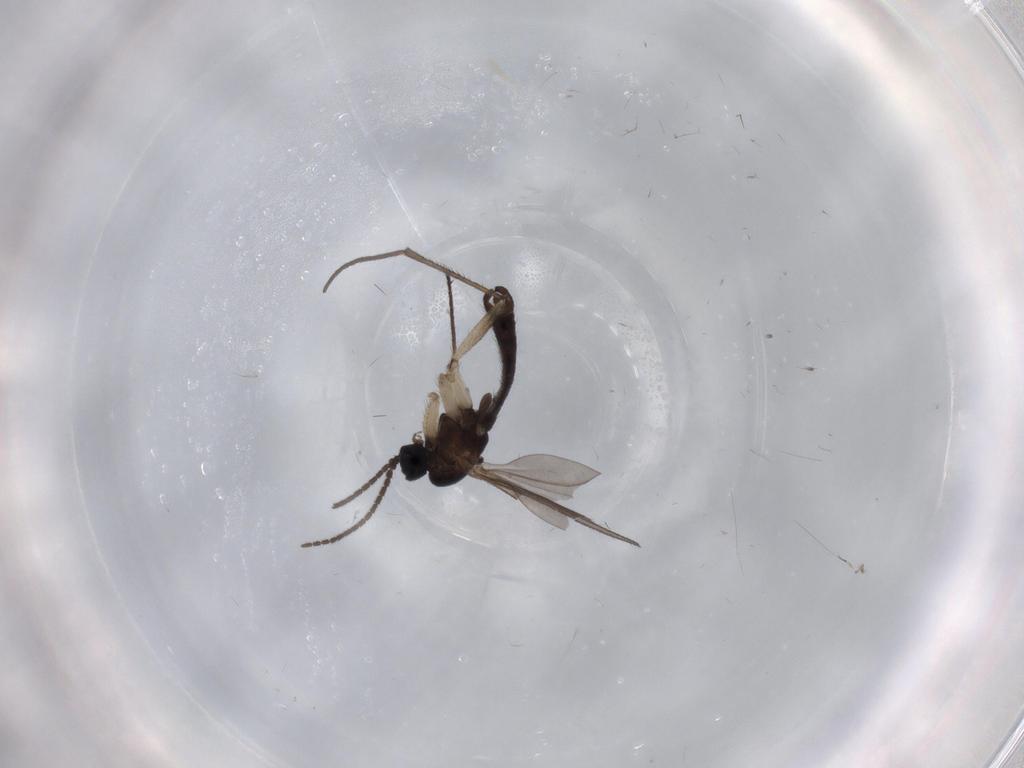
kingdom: Animalia
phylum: Arthropoda
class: Insecta
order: Diptera
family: Sciaridae
